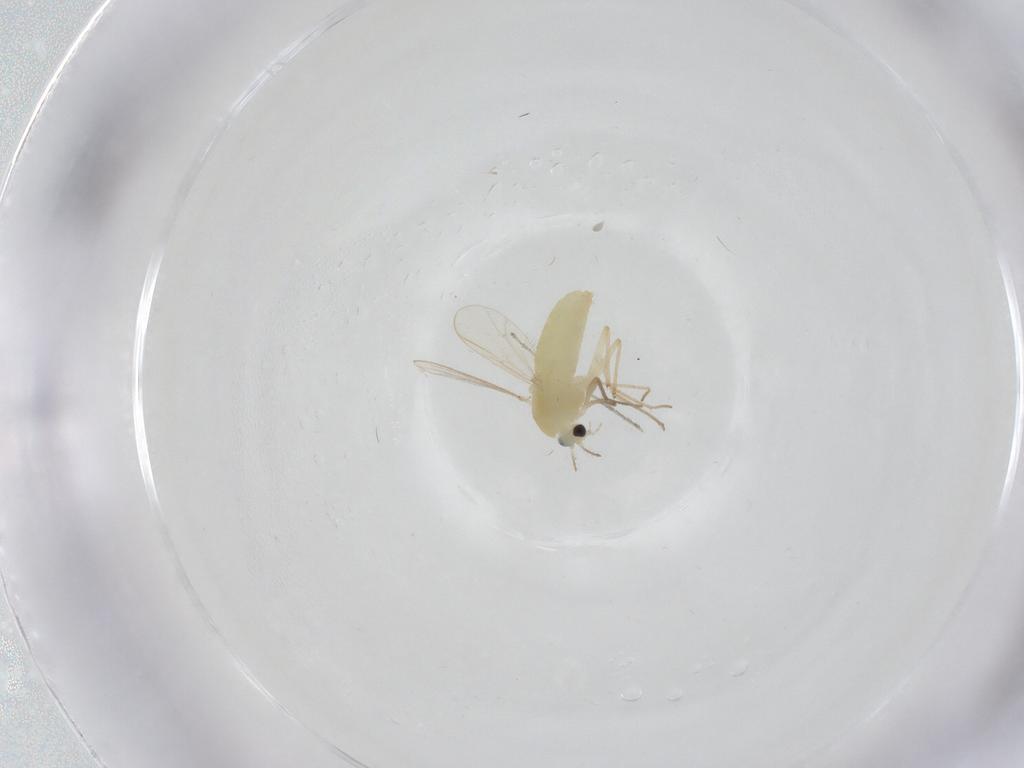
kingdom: Animalia
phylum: Arthropoda
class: Insecta
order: Diptera
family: Chironomidae
